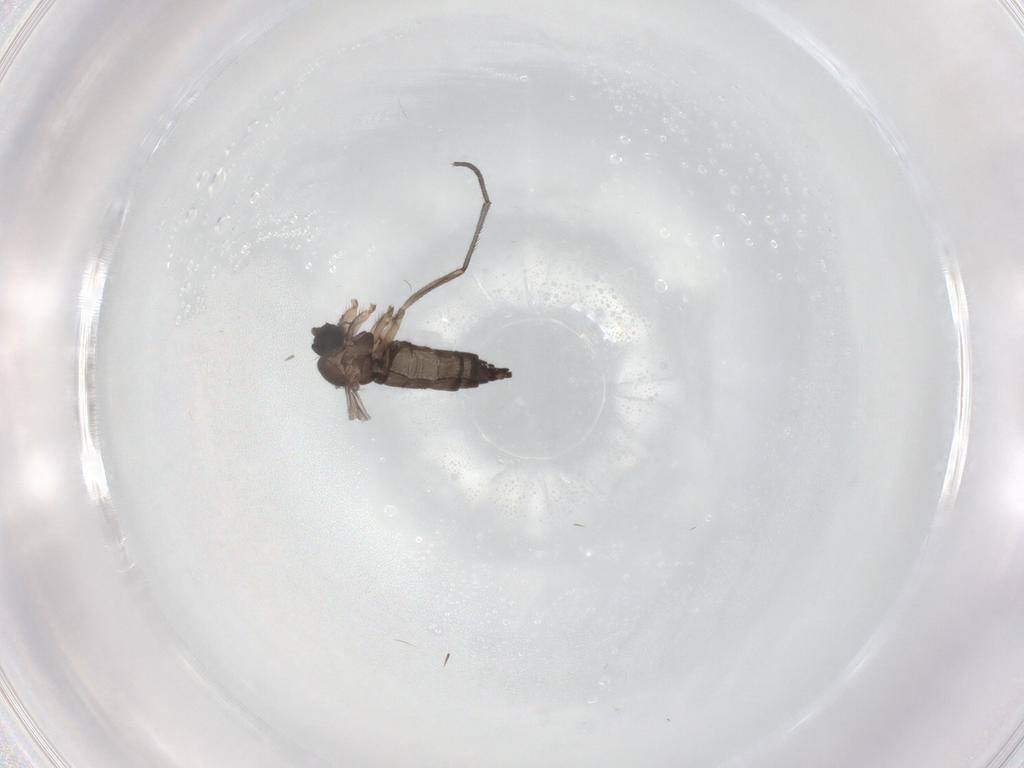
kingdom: Animalia
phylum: Arthropoda
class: Insecta
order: Diptera
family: Sciaridae
